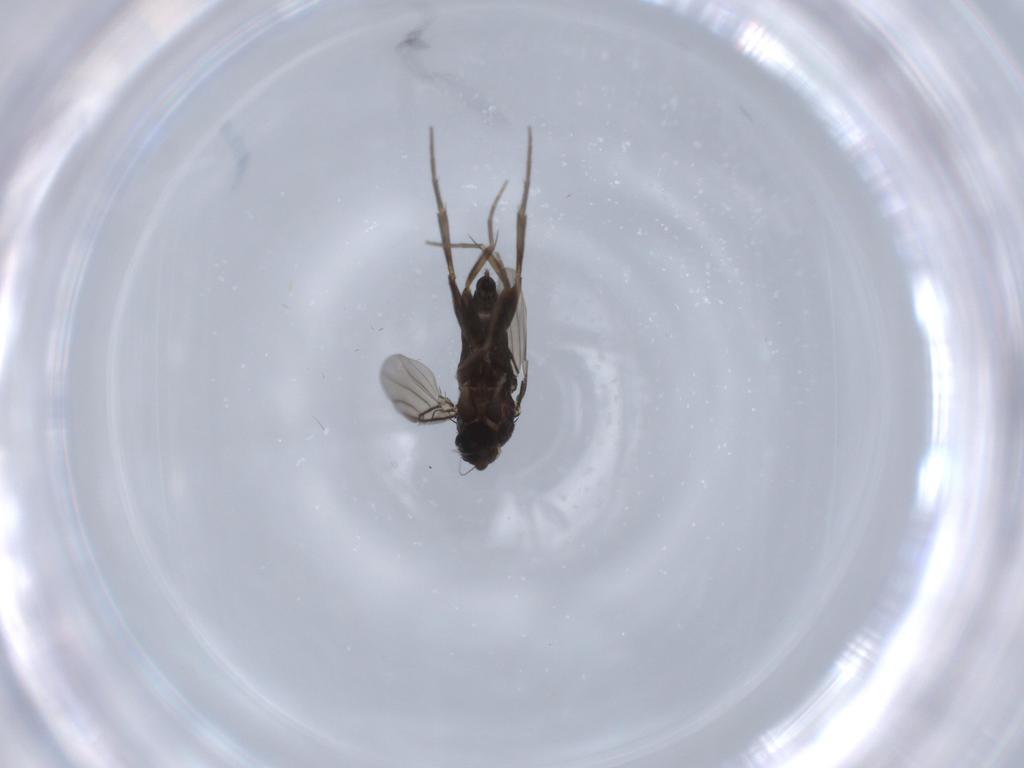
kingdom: Animalia
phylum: Arthropoda
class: Insecta
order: Diptera
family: Chironomidae
